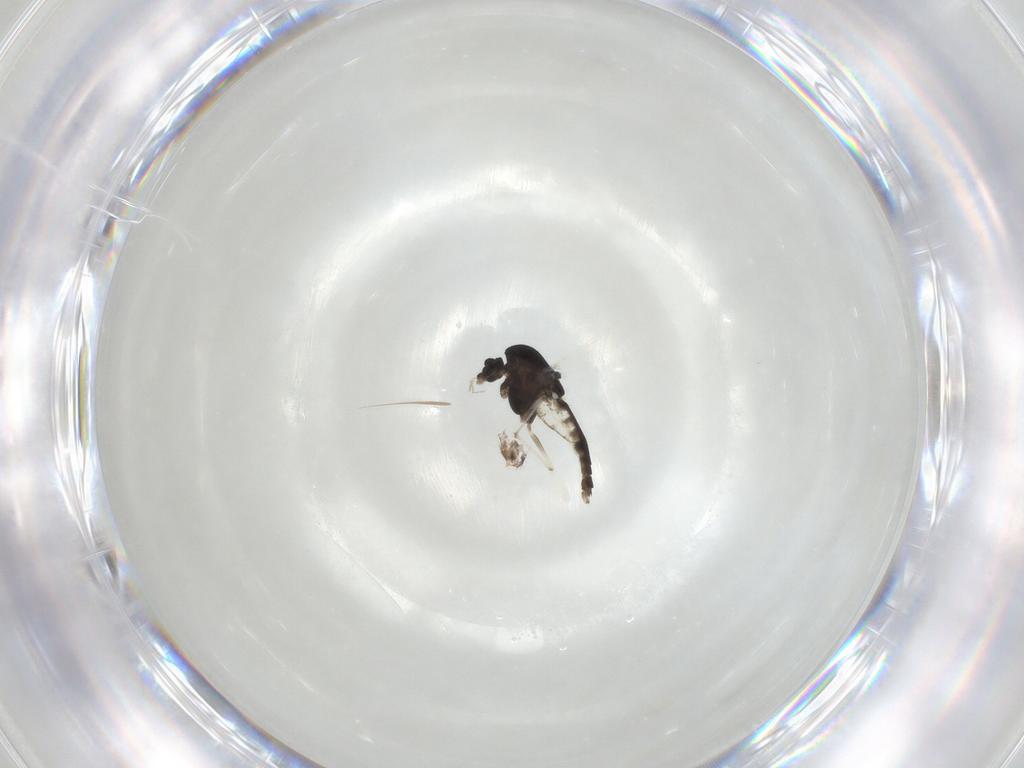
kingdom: Animalia
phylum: Arthropoda
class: Insecta
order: Diptera
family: Chironomidae
